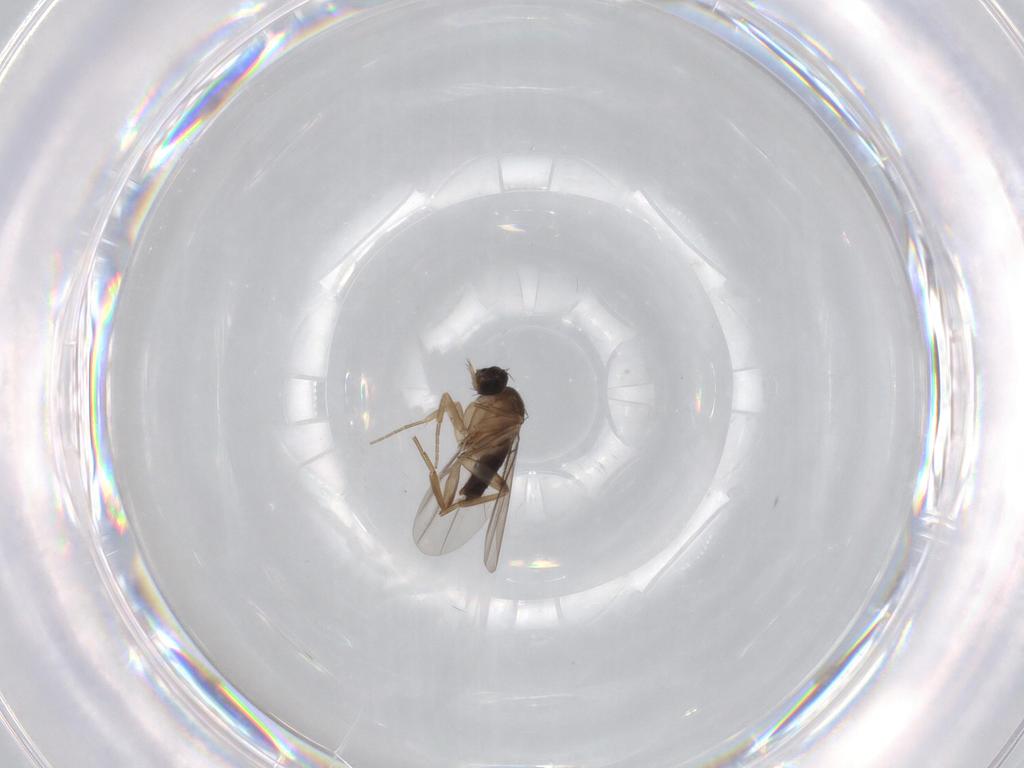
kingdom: Animalia
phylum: Arthropoda
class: Insecta
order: Diptera
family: Phoridae
